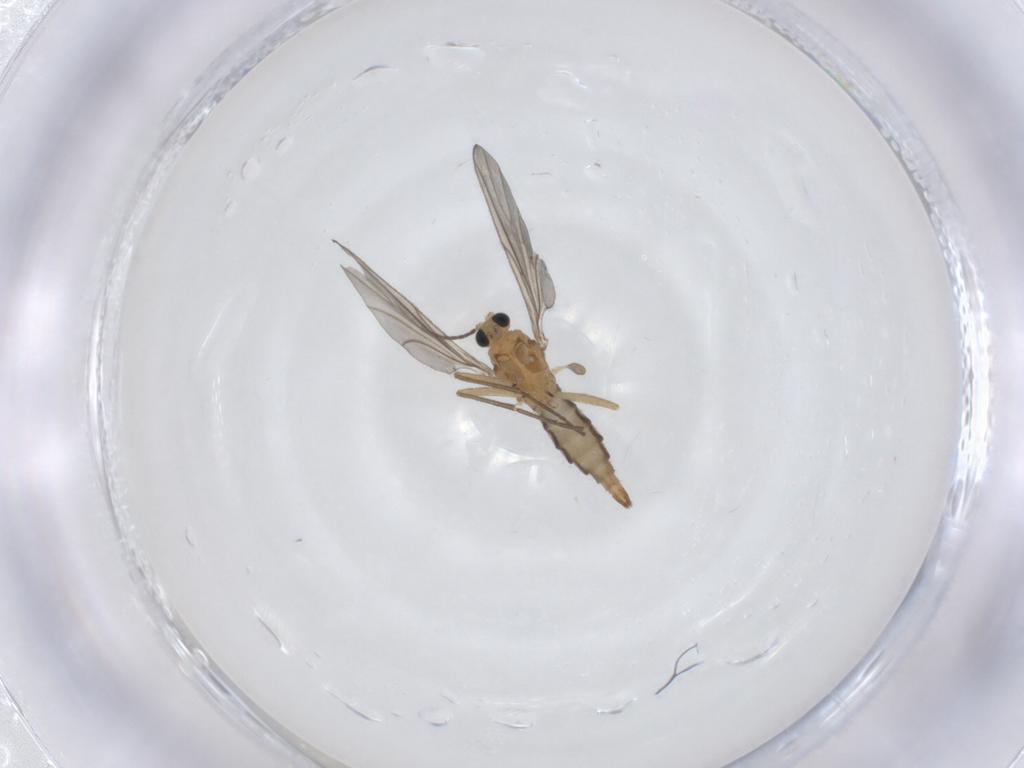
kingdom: Animalia
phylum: Arthropoda
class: Insecta
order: Diptera
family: Sciaridae
